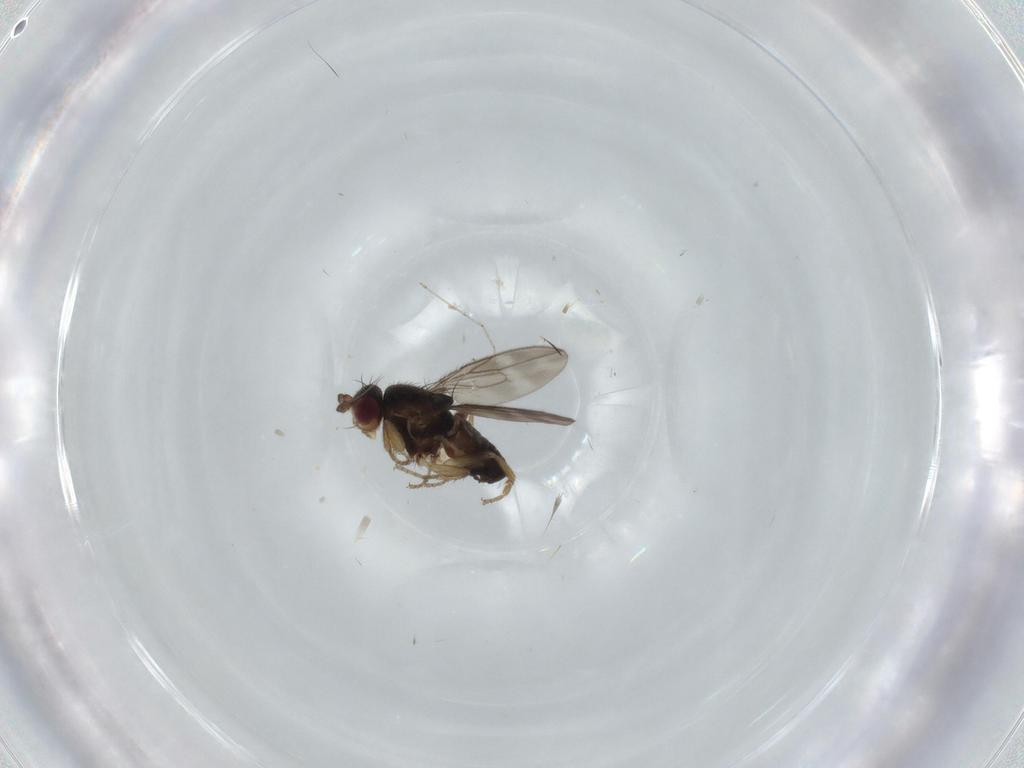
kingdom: Animalia
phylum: Arthropoda
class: Insecta
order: Diptera
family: Sphaeroceridae
